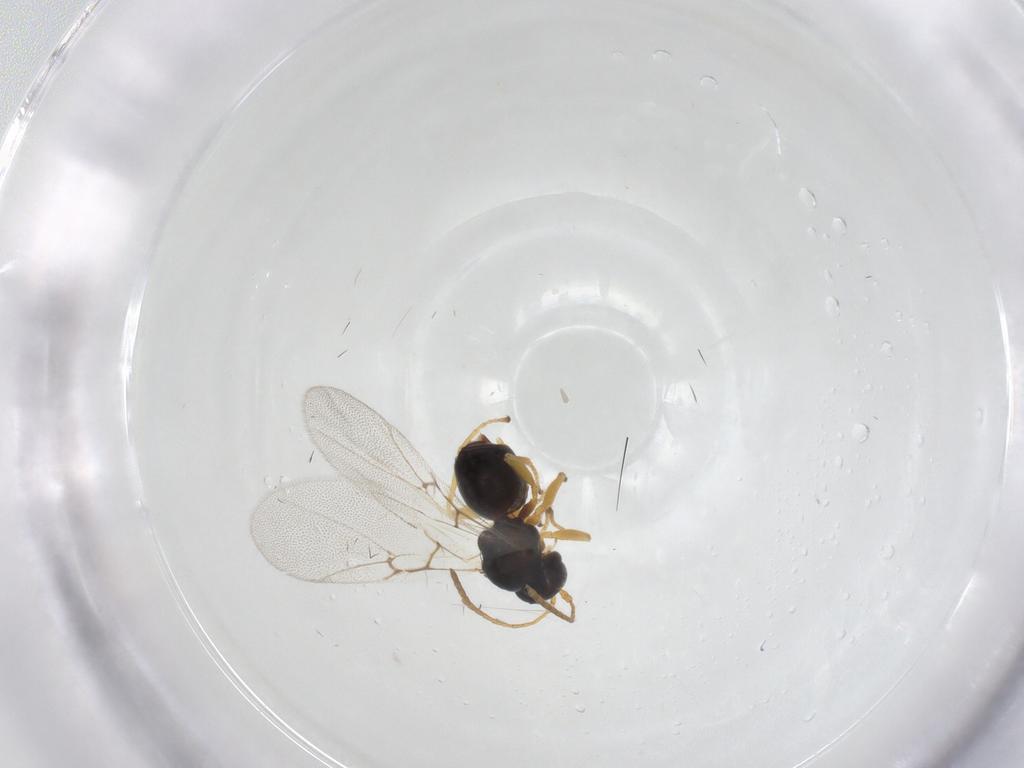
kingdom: Animalia
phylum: Arthropoda
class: Insecta
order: Hymenoptera
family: Cynipidae
